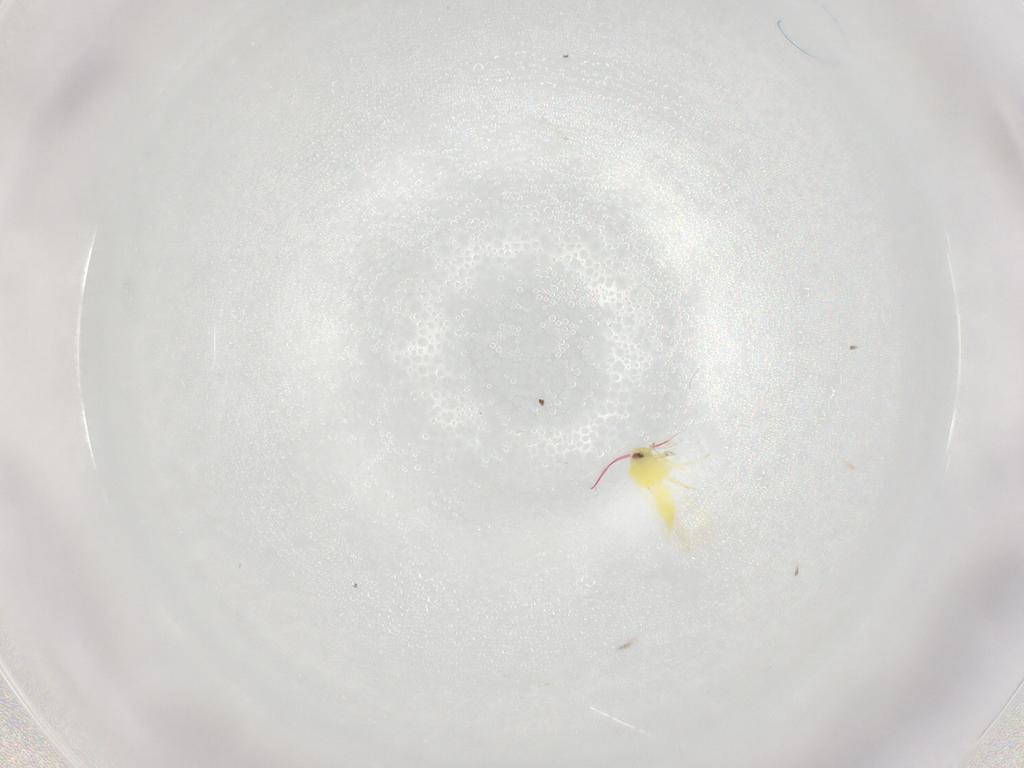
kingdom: Animalia
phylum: Arthropoda
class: Insecta
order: Hemiptera
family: Aleyrodidae
